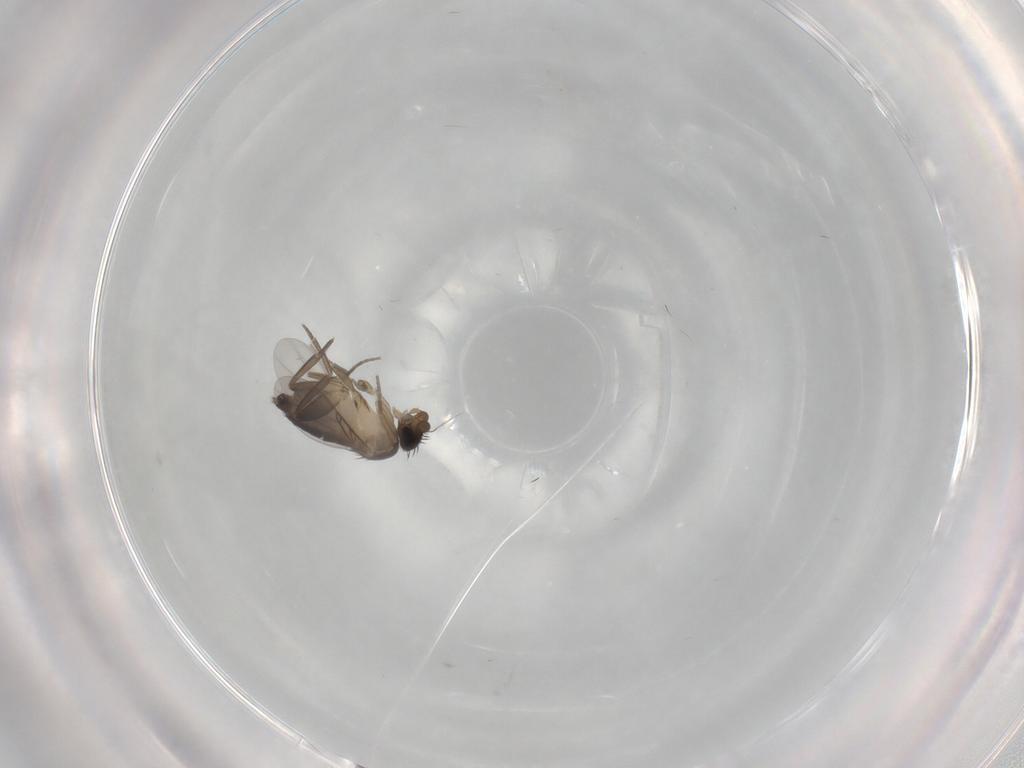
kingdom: Animalia
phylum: Arthropoda
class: Insecta
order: Diptera
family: Phoridae
